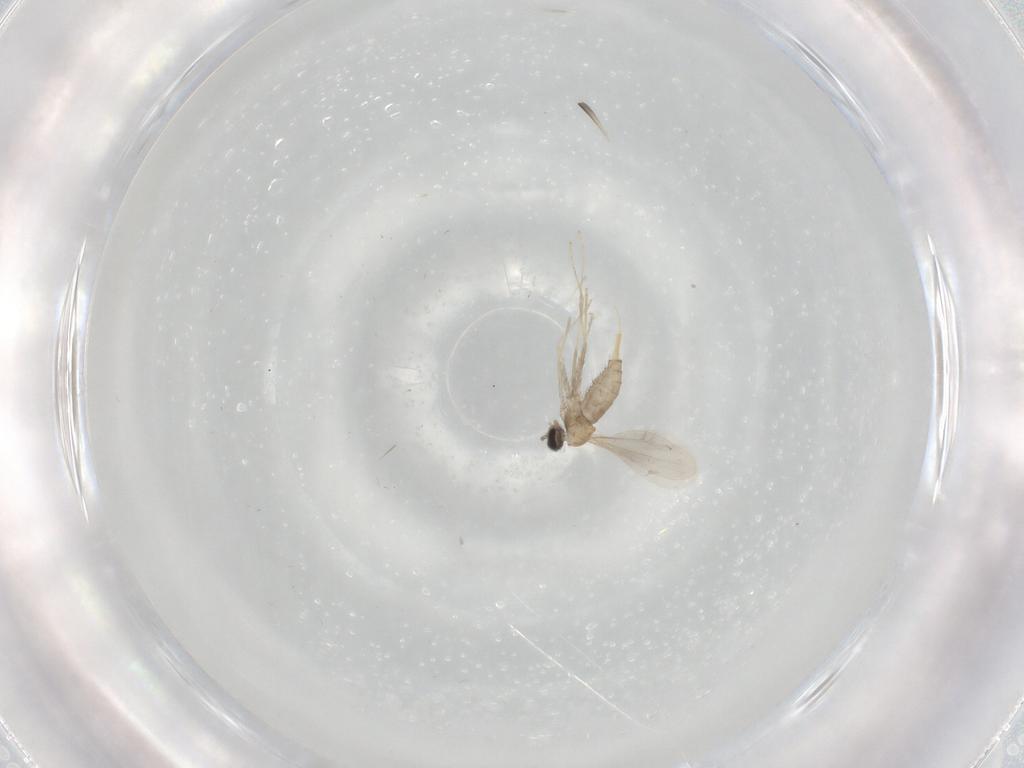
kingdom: Animalia
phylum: Arthropoda
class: Insecta
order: Diptera
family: Cecidomyiidae
